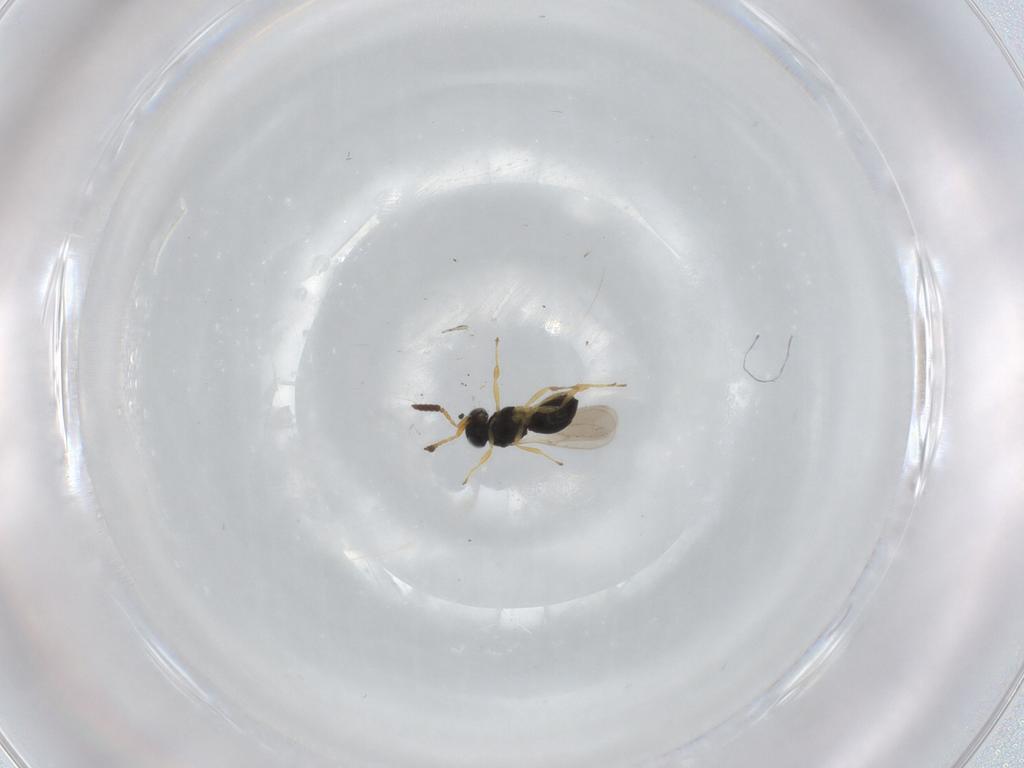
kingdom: Animalia
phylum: Arthropoda
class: Insecta
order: Hymenoptera
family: Scelionidae
